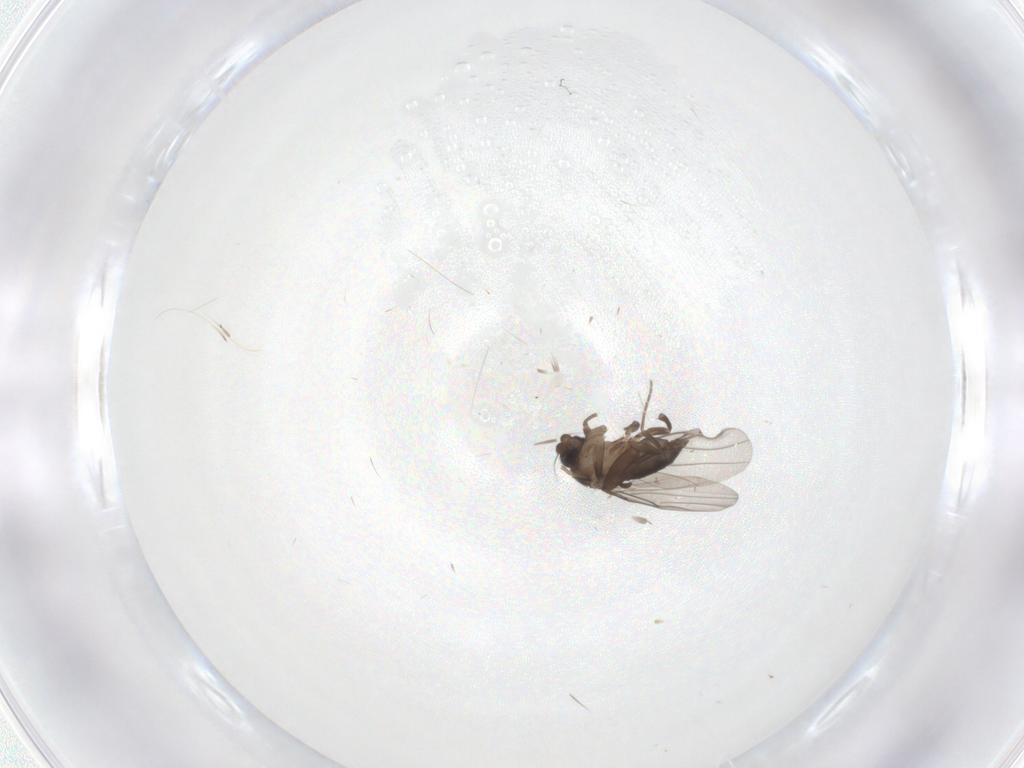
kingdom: Animalia
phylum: Arthropoda
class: Insecta
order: Diptera
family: Phoridae
